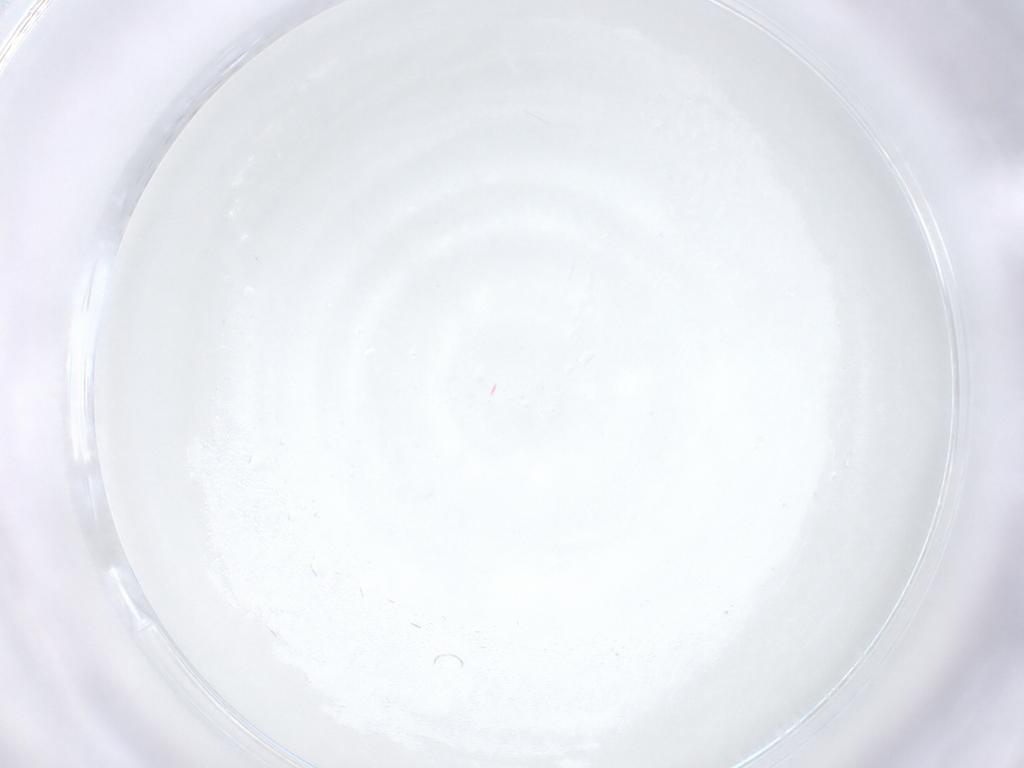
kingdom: Animalia
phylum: Arthropoda
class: Arachnida
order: Trombidiformes
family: Bdellidae
